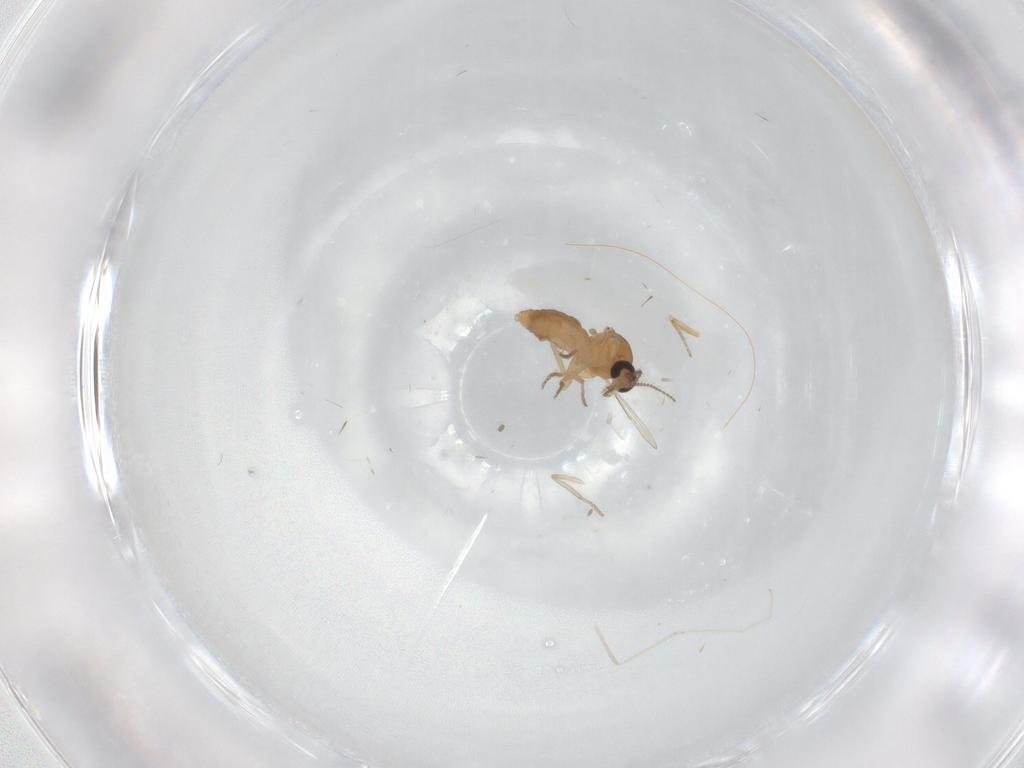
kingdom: Animalia
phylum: Arthropoda
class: Insecta
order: Diptera
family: Ceratopogonidae
